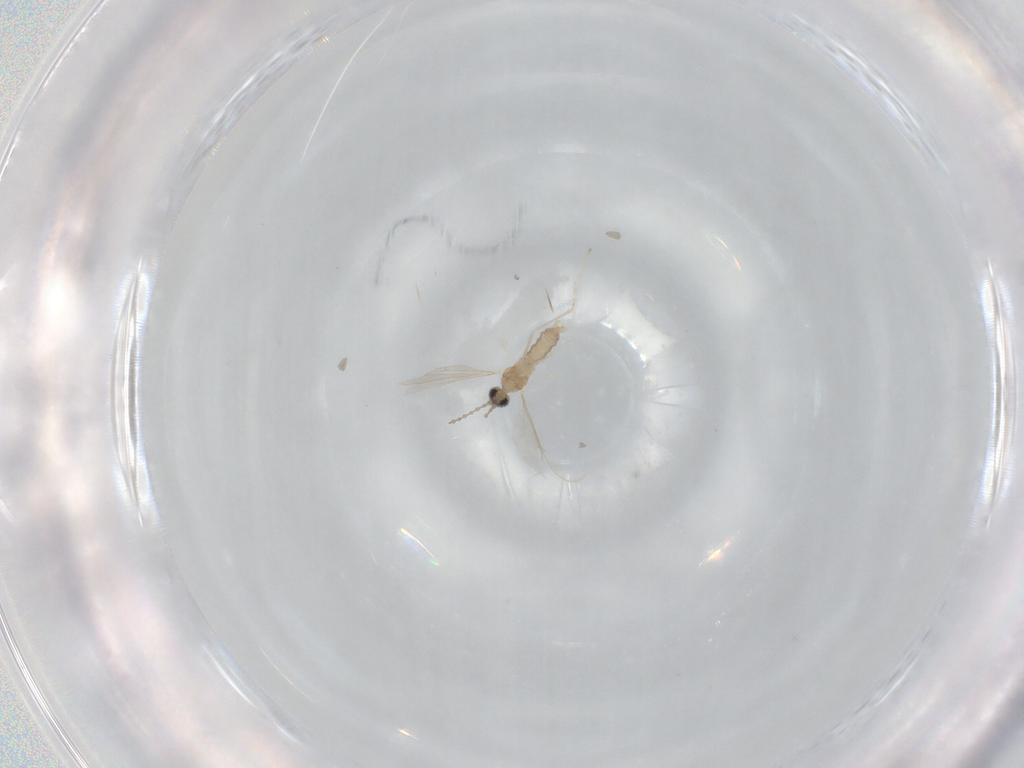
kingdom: Animalia
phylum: Arthropoda
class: Insecta
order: Diptera
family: Cecidomyiidae
